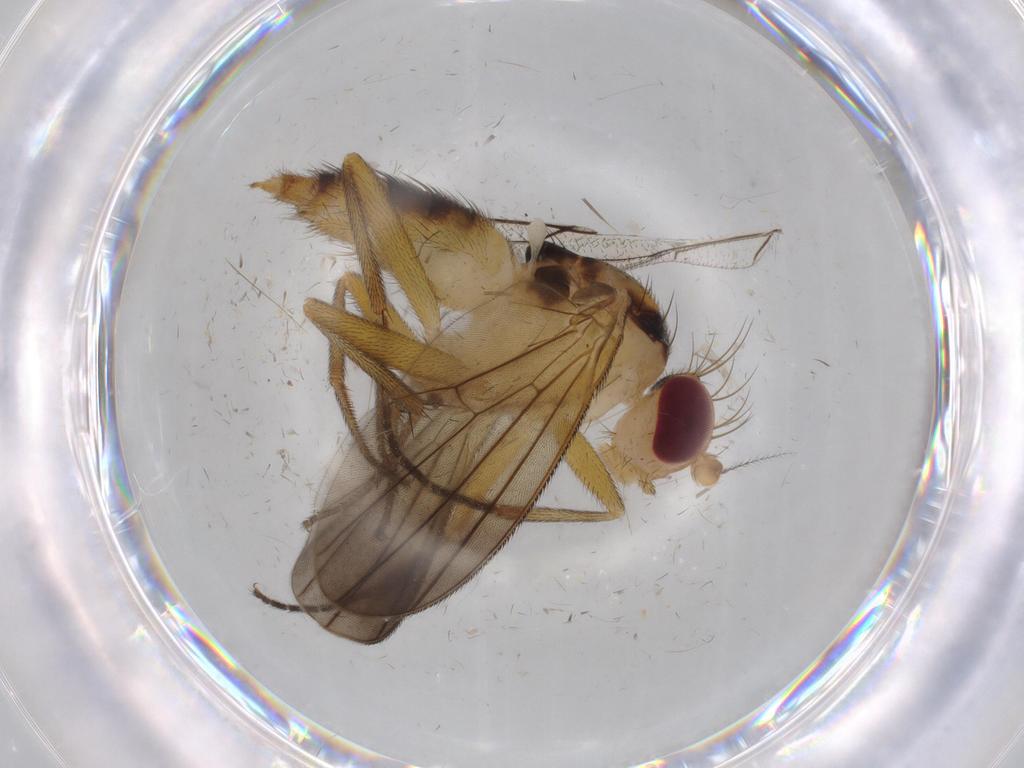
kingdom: Animalia
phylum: Arthropoda
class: Insecta
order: Diptera
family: Clusiidae
